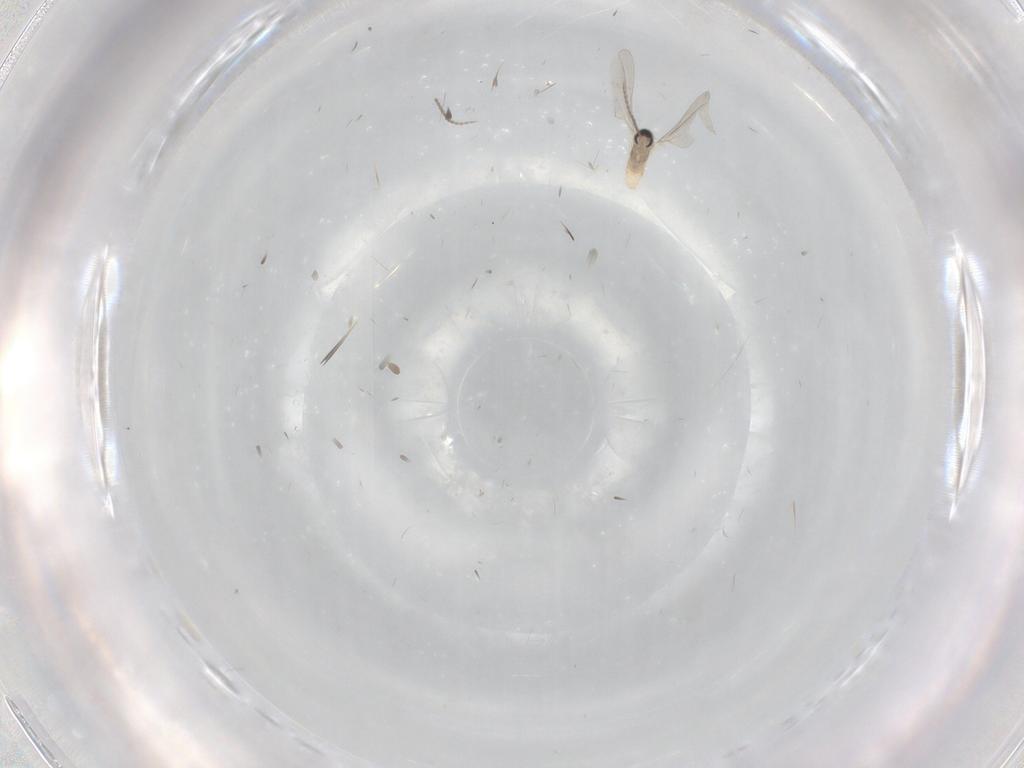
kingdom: Animalia
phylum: Arthropoda
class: Insecta
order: Diptera
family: Cecidomyiidae
